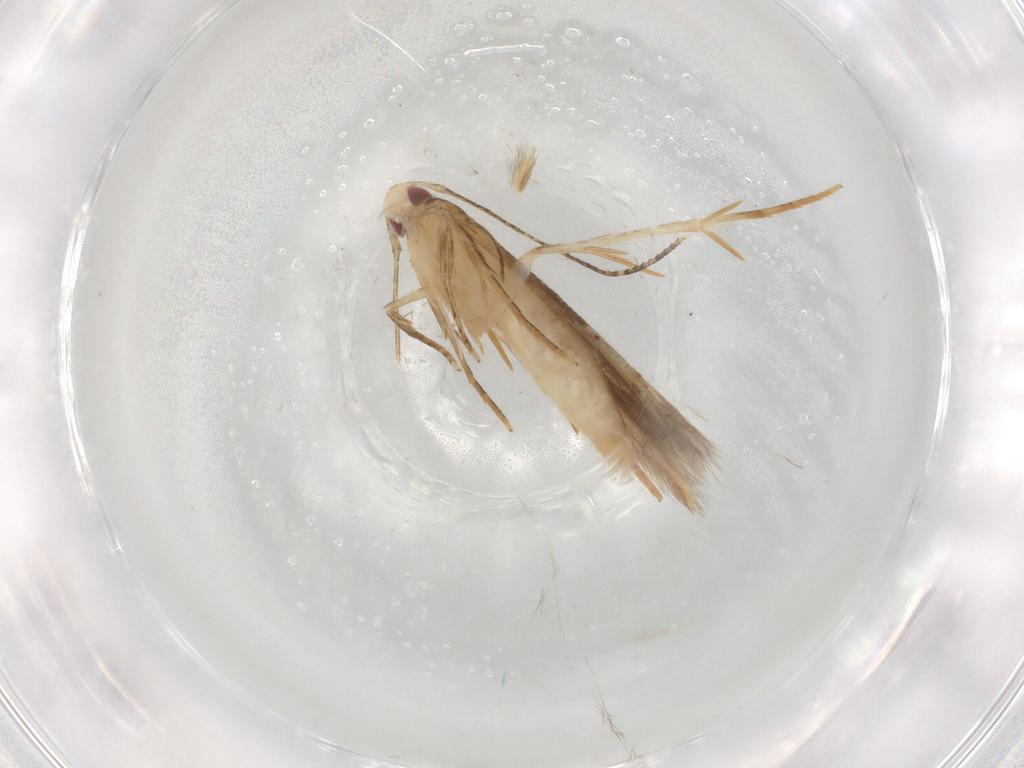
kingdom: Animalia
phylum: Arthropoda
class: Insecta
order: Lepidoptera
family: Gelechiidae
